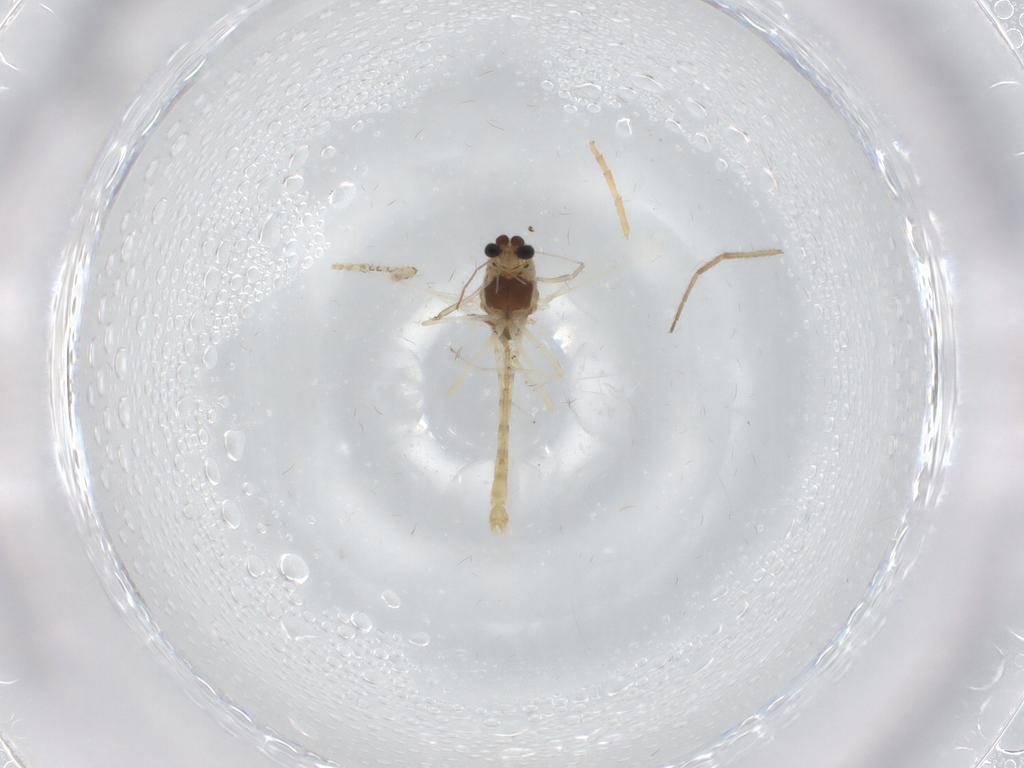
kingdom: Animalia
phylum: Arthropoda
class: Insecta
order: Diptera
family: Chironomidae
